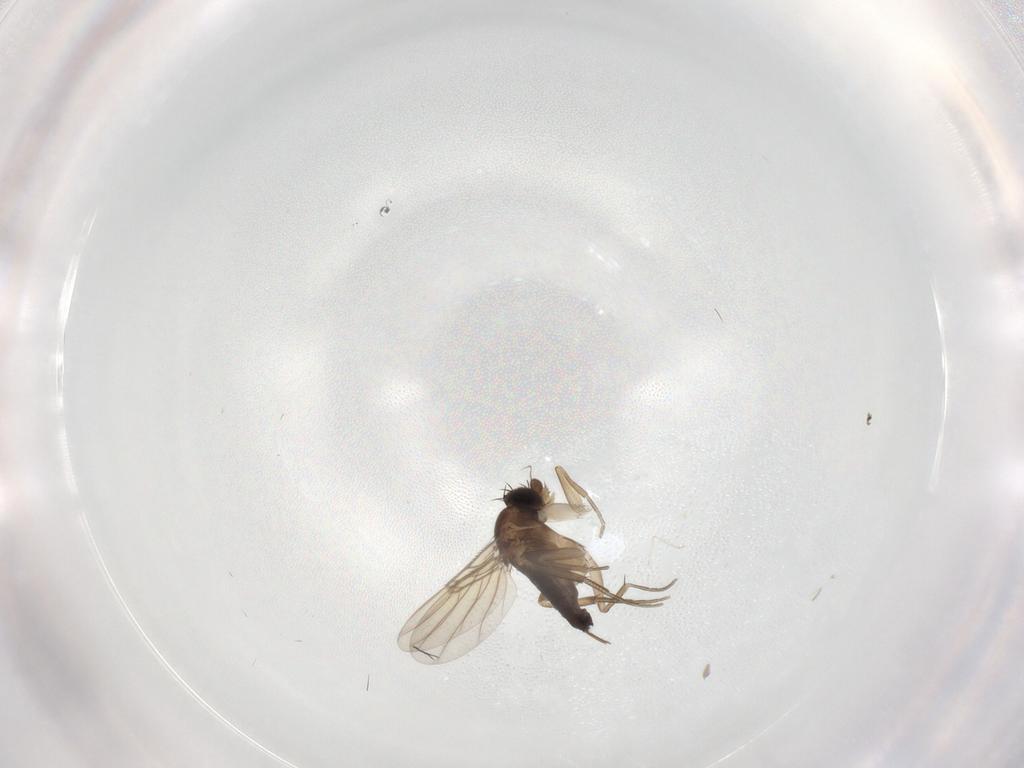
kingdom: Animalia
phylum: Arthropoda
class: Insecta
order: Diptera
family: Phoridae
